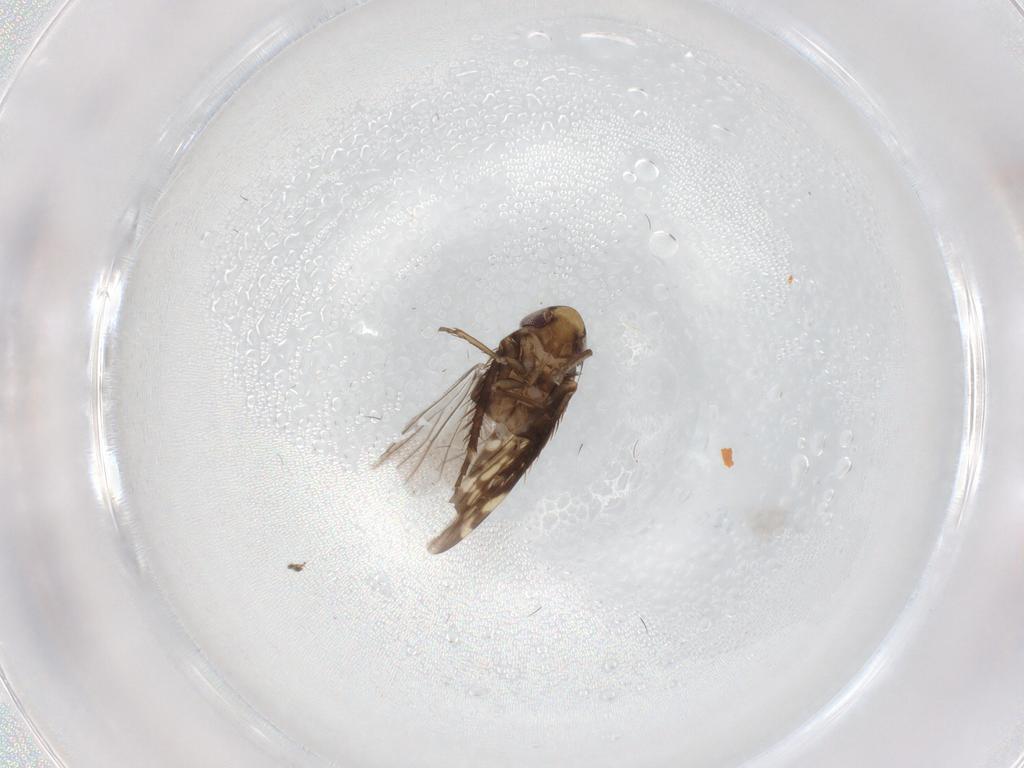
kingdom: Animalia
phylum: Arthropoda
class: Insecta
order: Hemiptera
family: Cicadellidae
